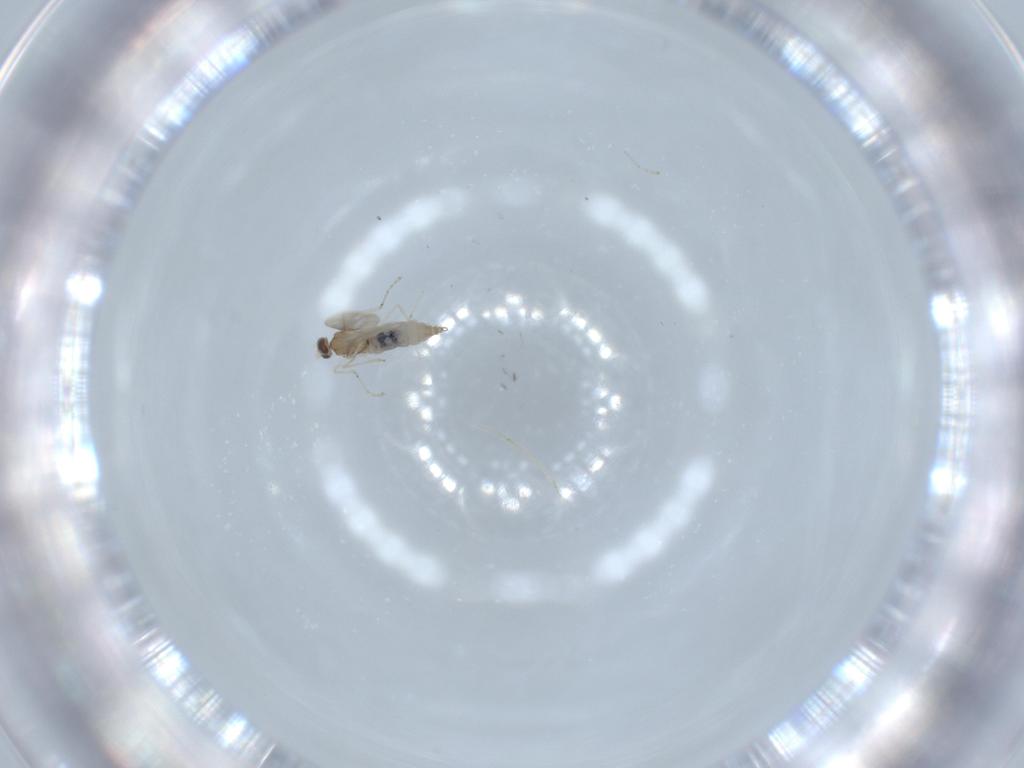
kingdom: Animalia
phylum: Arthropoda
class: Insecta
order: Diptera
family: Cecidomyiidae
